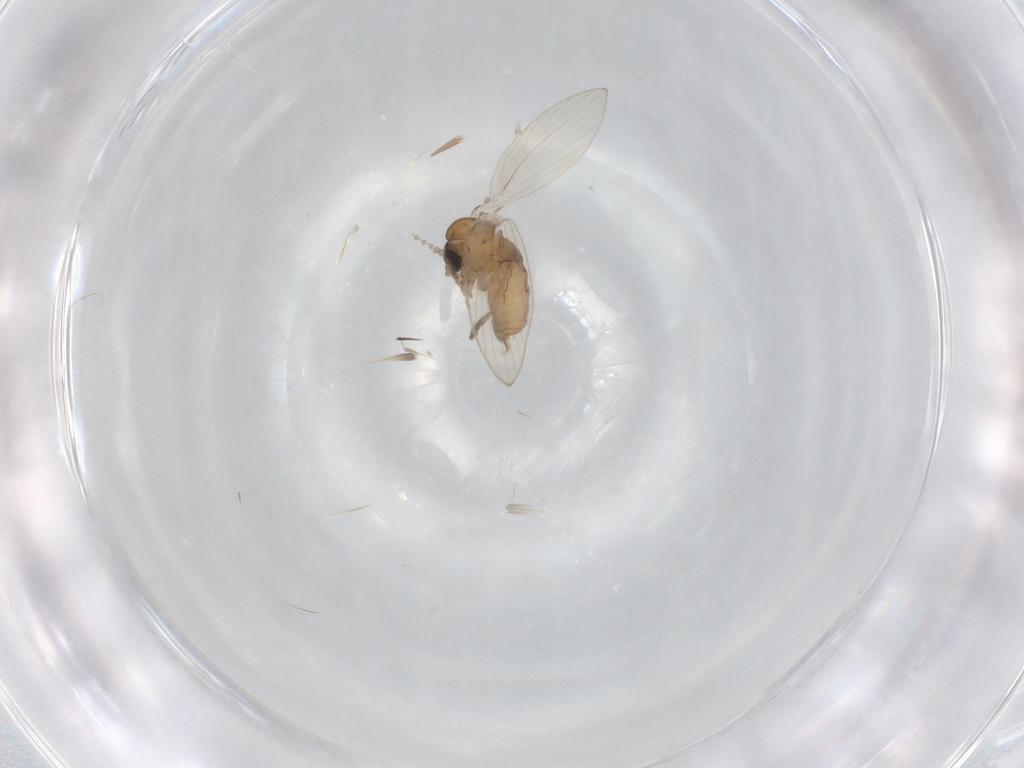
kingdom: Animalia
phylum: Arthropoda
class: Insecta
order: Diptera
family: Psychodidae
